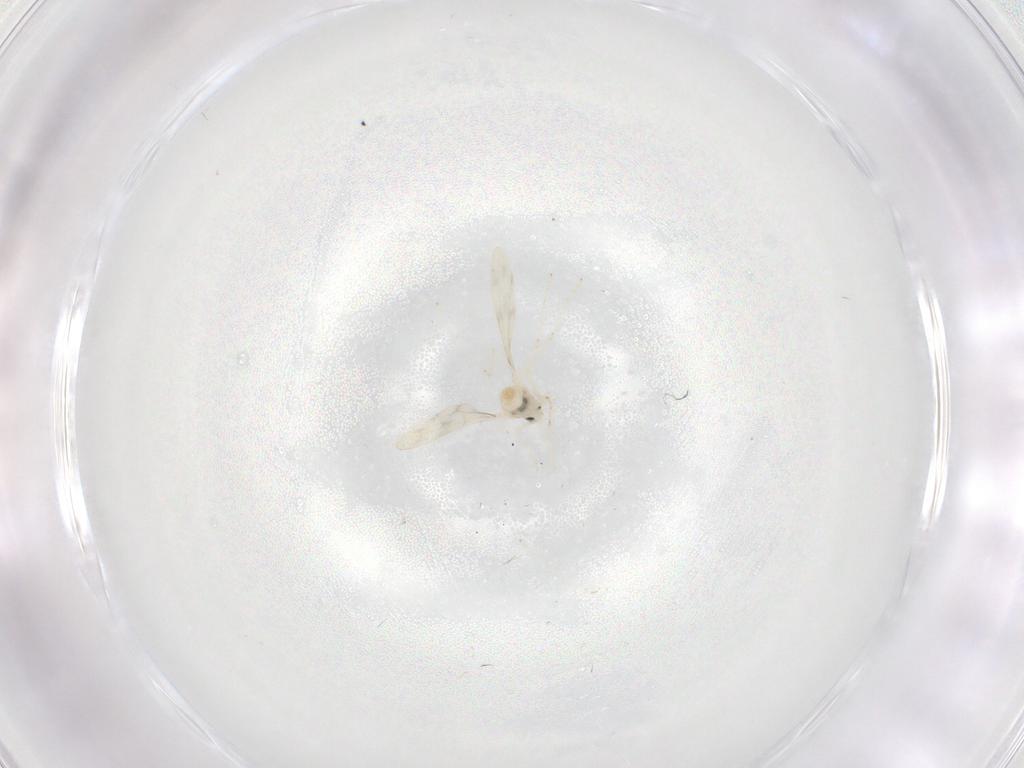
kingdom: Animalia
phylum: Arthropoda
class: Insecta
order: Diptera
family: Cecidomyiidae
